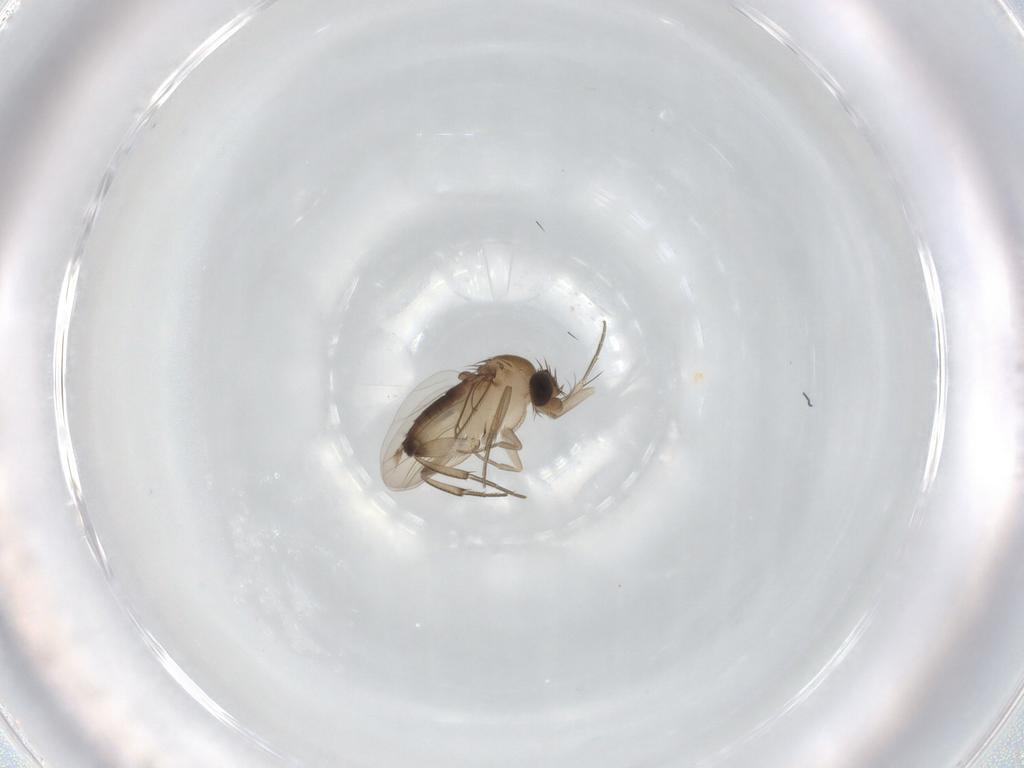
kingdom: Animalia
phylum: Arthropoda
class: Insecta
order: Diptera
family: Phoridae
